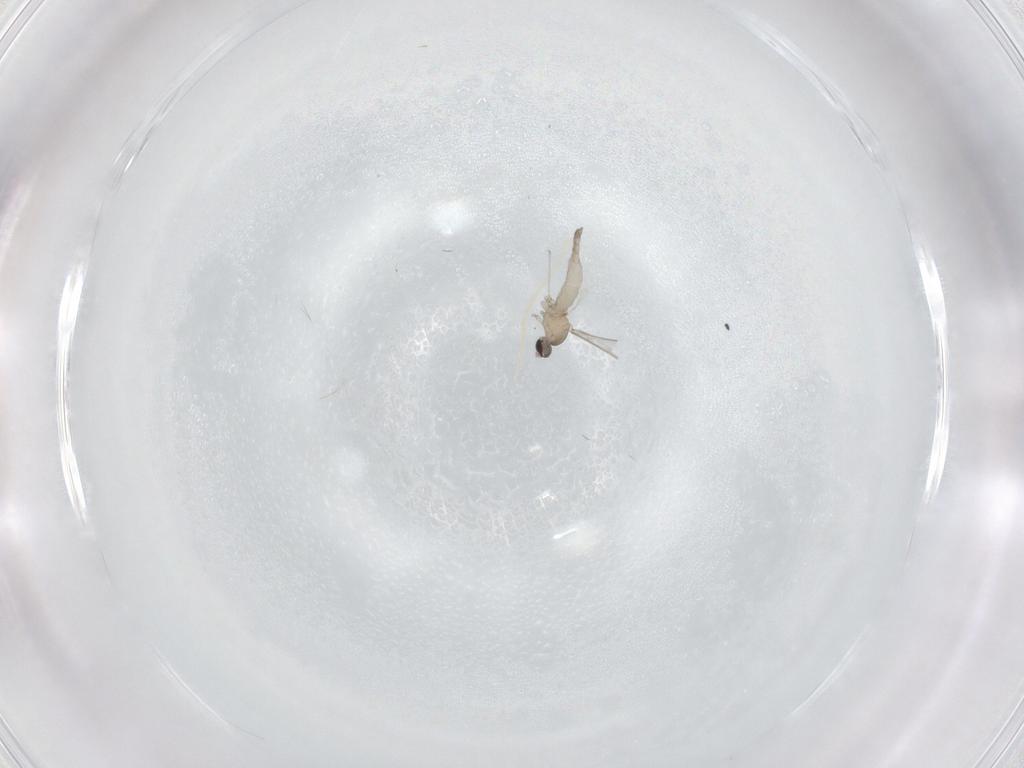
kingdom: Animalia
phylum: Arthropoda
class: Insecta
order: Diptera
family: Cecidomyiidae
